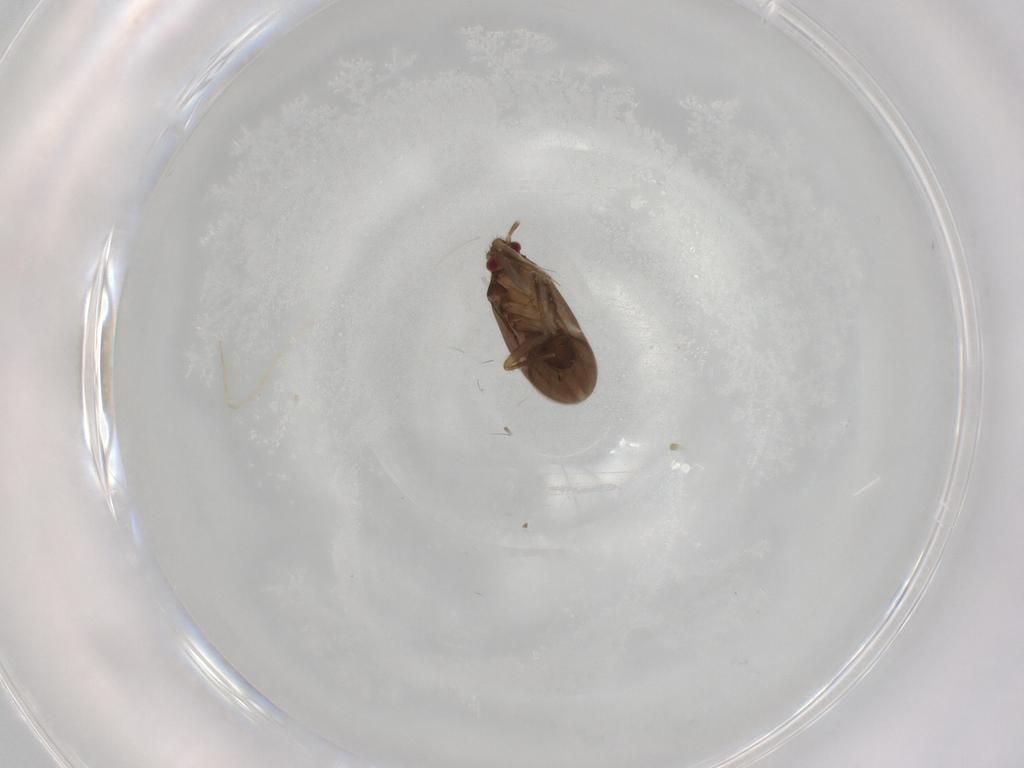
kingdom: Animalia
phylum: Arthropoda
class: Insecta
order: Hemiptera
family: Ceratocombidae
